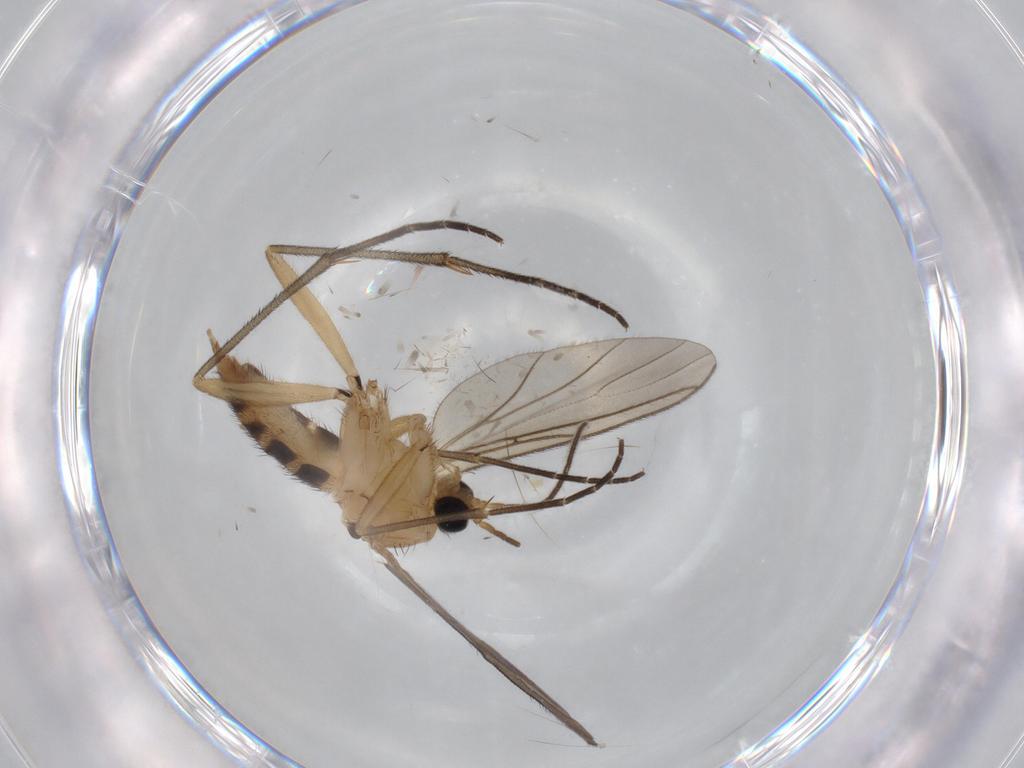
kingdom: Animalia
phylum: Arthropoda
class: Insecta
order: Diptera
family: Sciaridae
